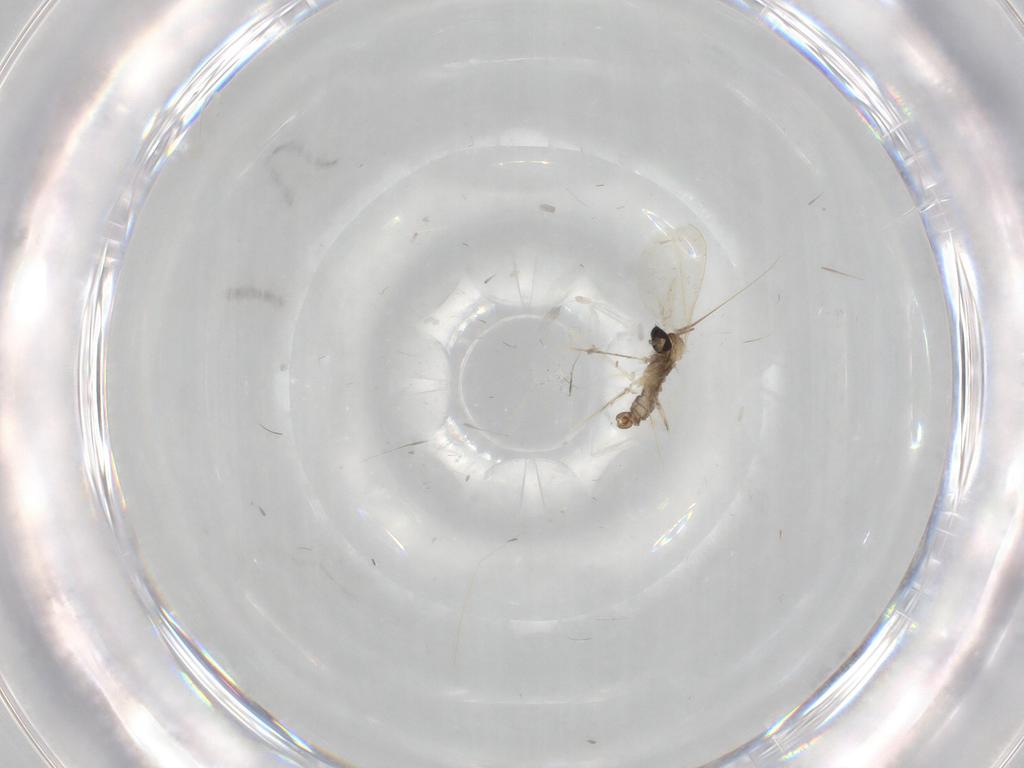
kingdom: Animalia
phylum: Arthropoda
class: Insecta
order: Diptera
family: Cecidomyiidae
